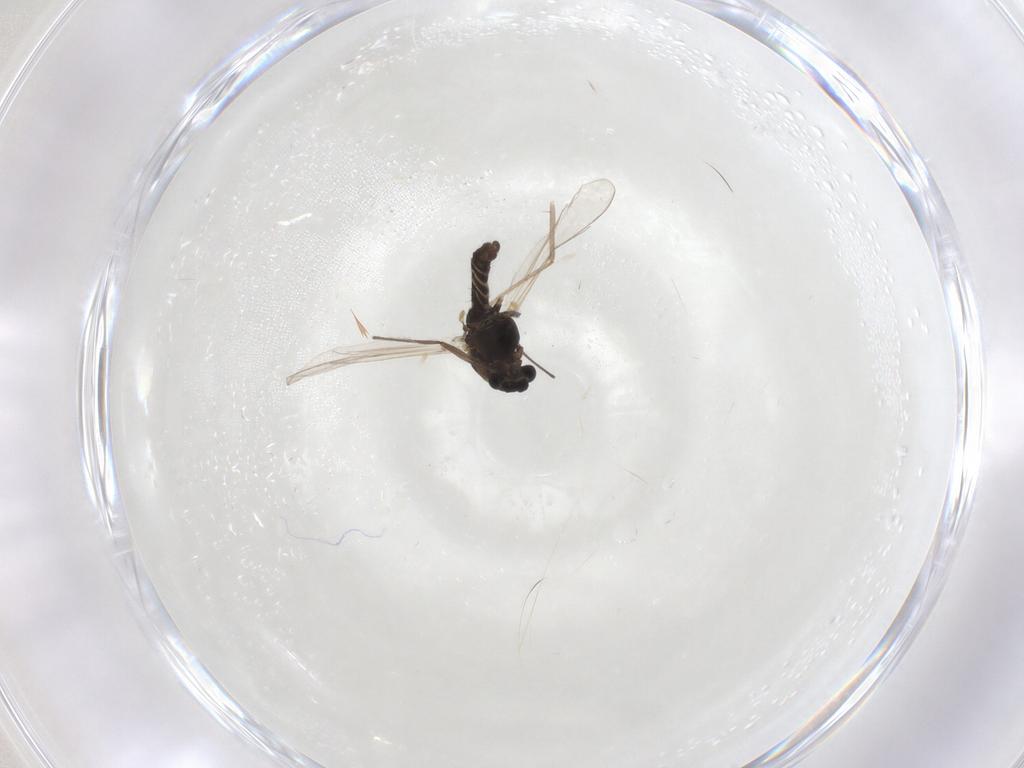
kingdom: Animalia
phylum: Arthropoda
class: Insecta
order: Diptera
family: Chironomidae
